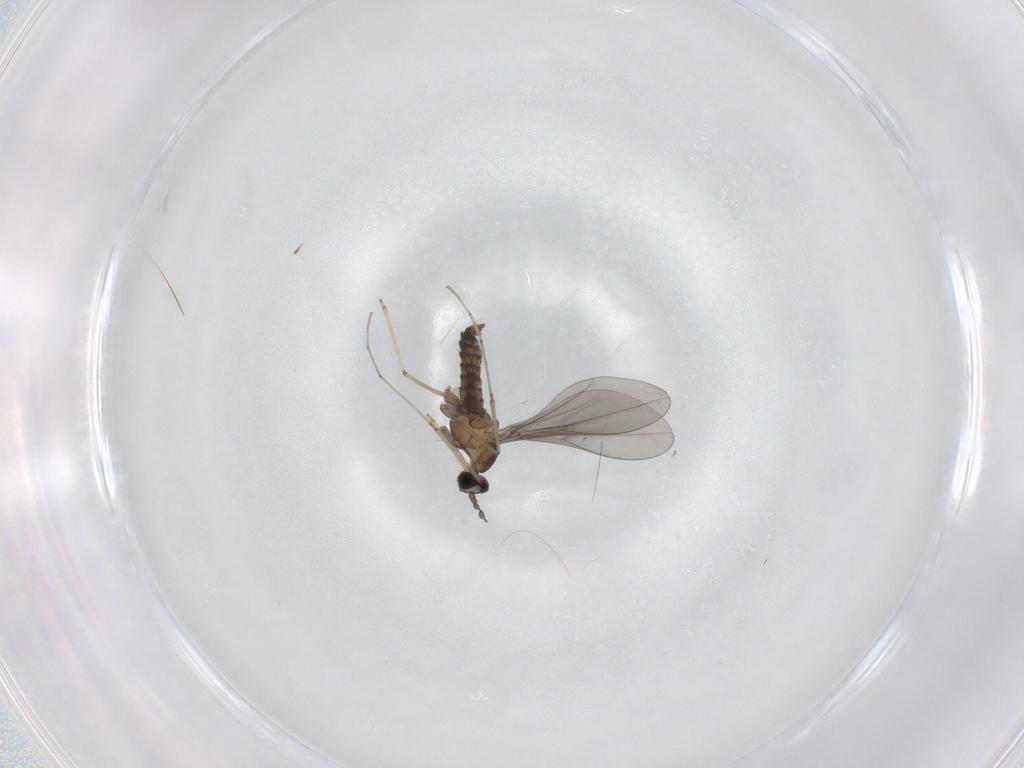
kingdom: Animalia
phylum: Arthropoda
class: Insecta
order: Diptera
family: Cecidomyiidae
